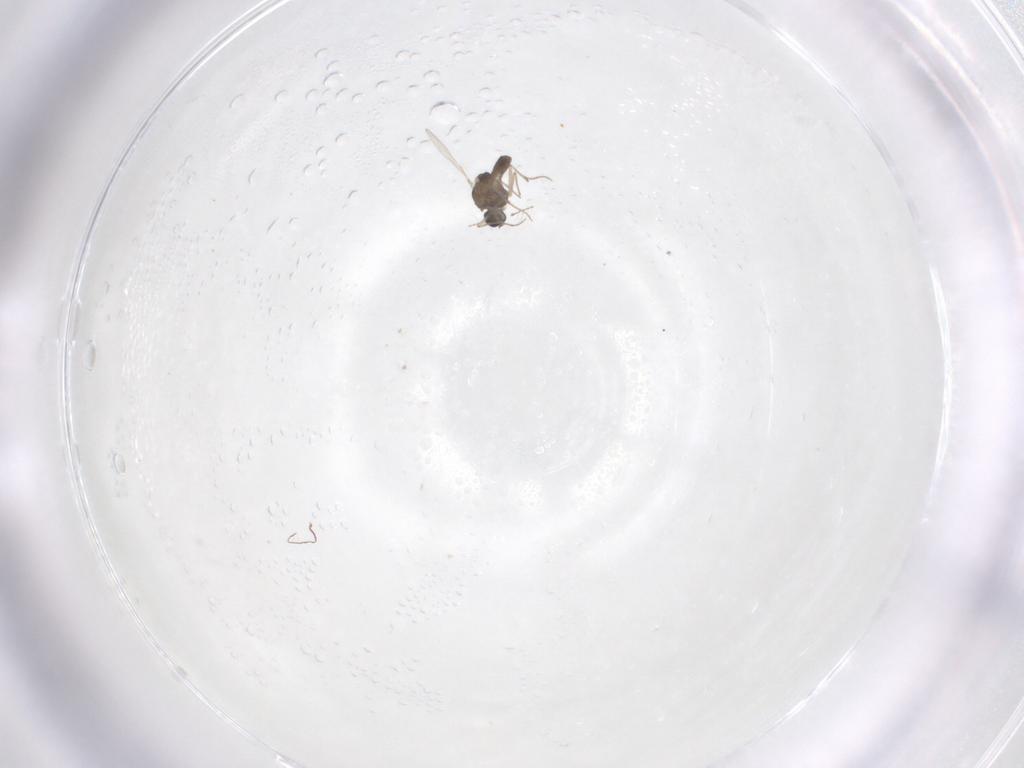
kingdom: Animalia
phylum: Arthropoda
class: Insecta
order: Diptera
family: Chironomidae
